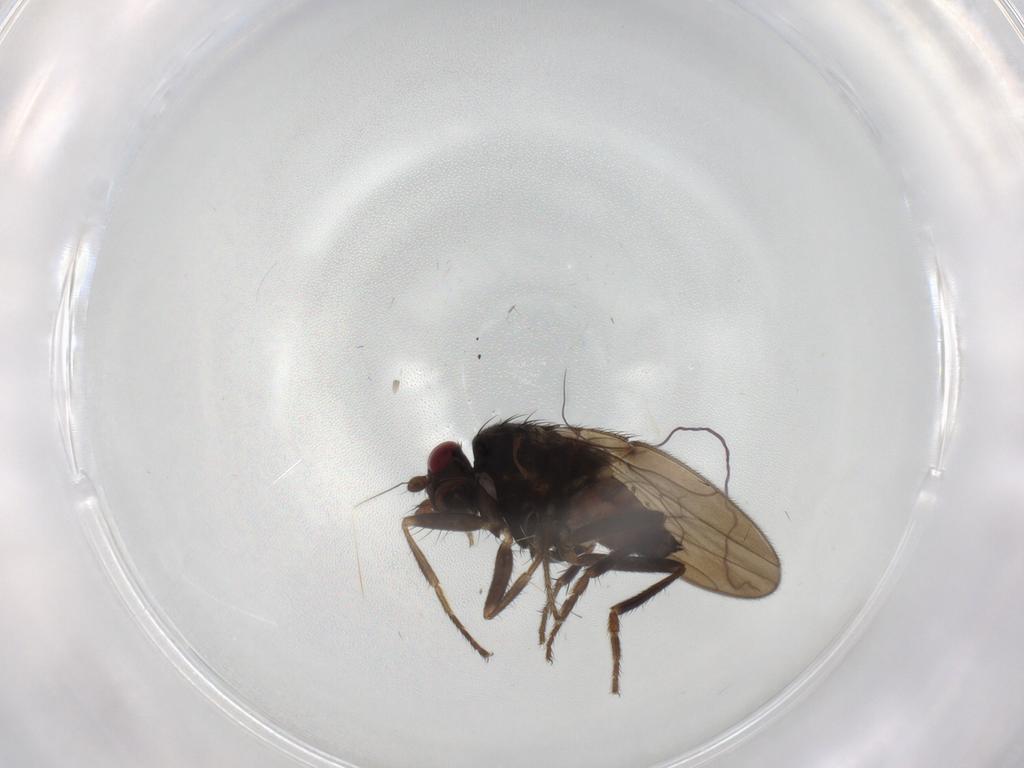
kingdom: Animalia
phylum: Arthropoda
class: Insecta
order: Diptera
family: Sphaeroceridae
